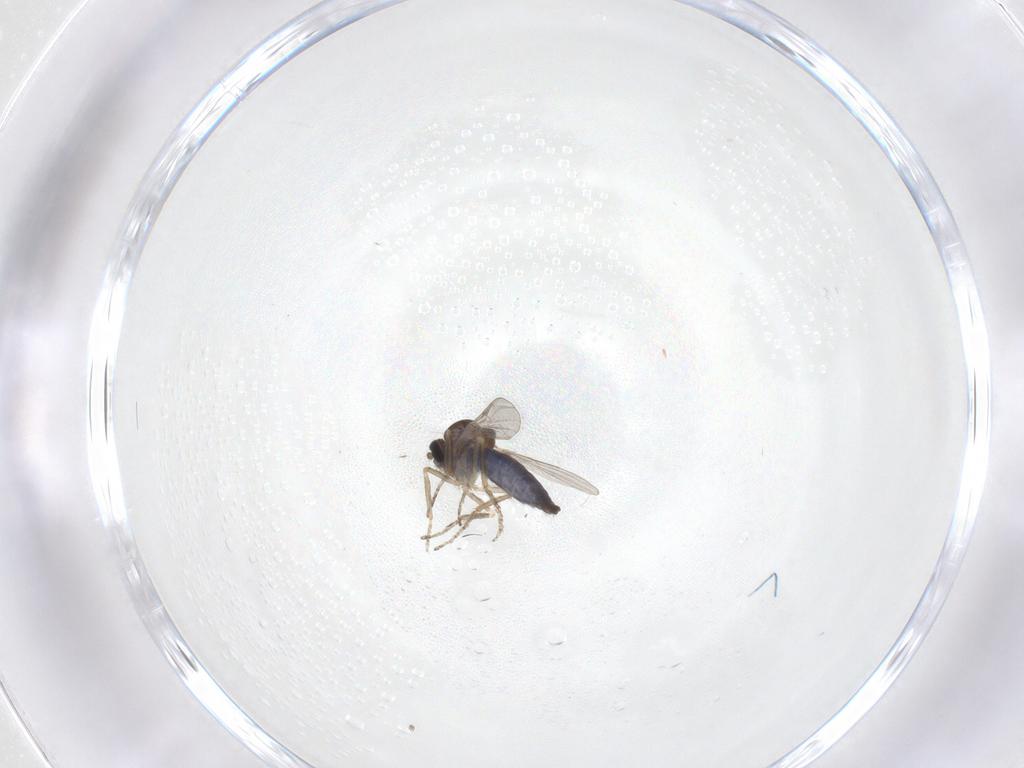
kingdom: Animalia
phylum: Arthropoda
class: Insecta
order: Diptera
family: Ceratopogonidae
